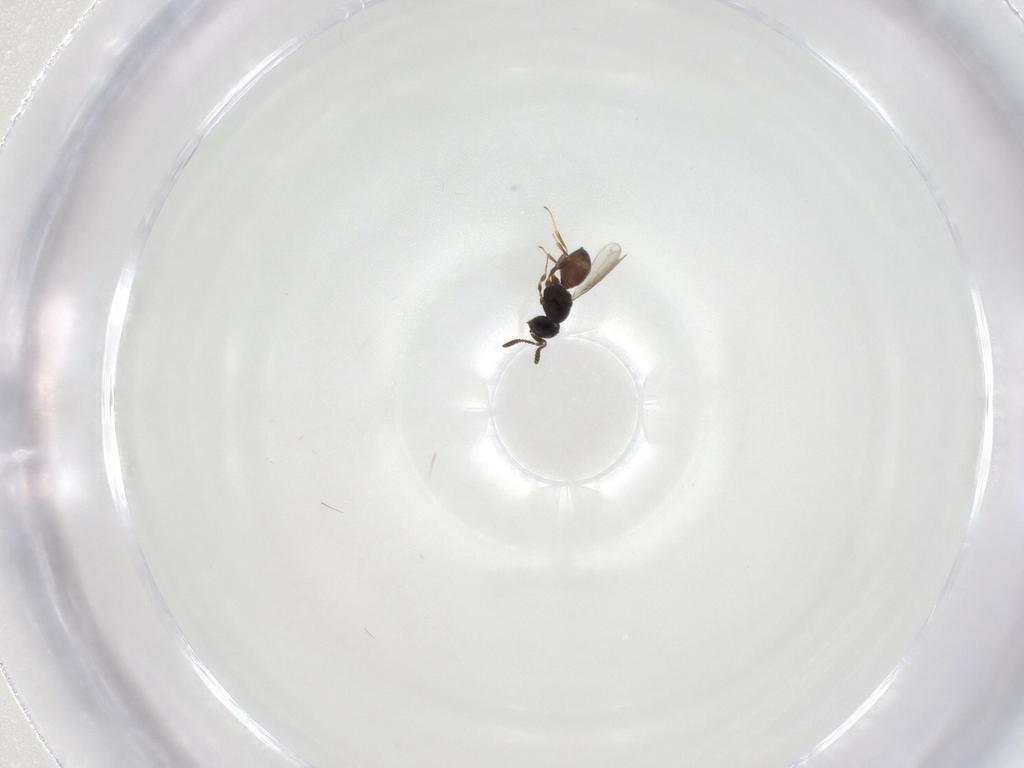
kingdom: Animalia
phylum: Arthropoda
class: Insecta
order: Hymenoptera
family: Scelionidae
